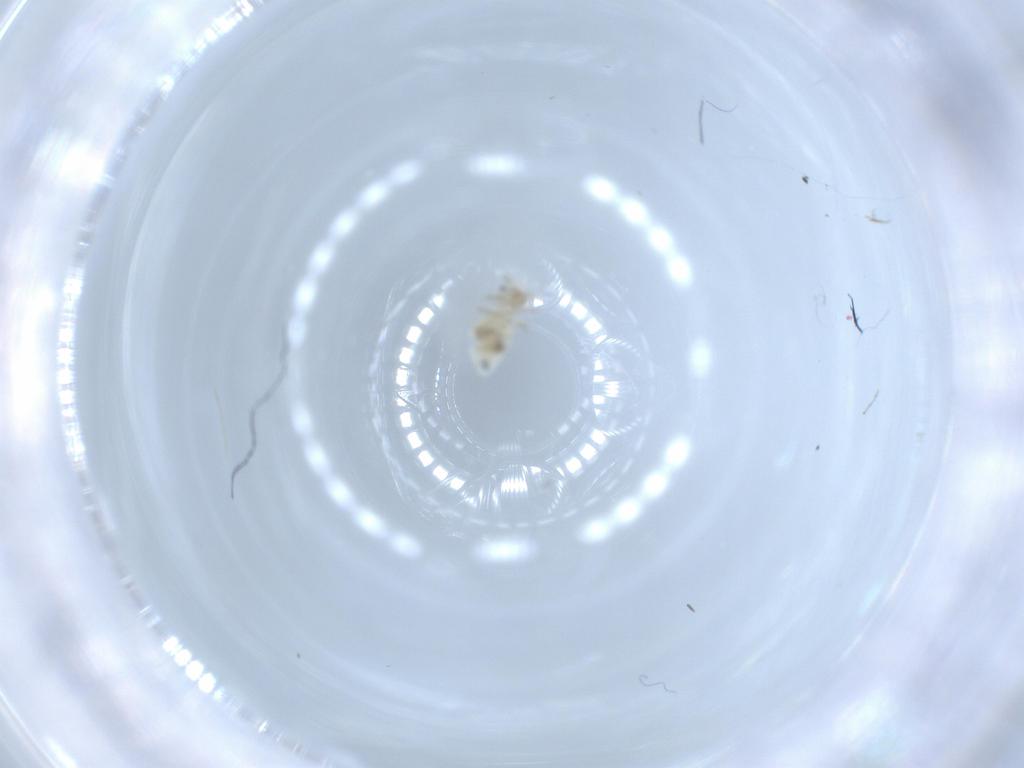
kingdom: Animalia
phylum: Arthropoda
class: Insecta
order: Psocodea
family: Caeciliusidae
